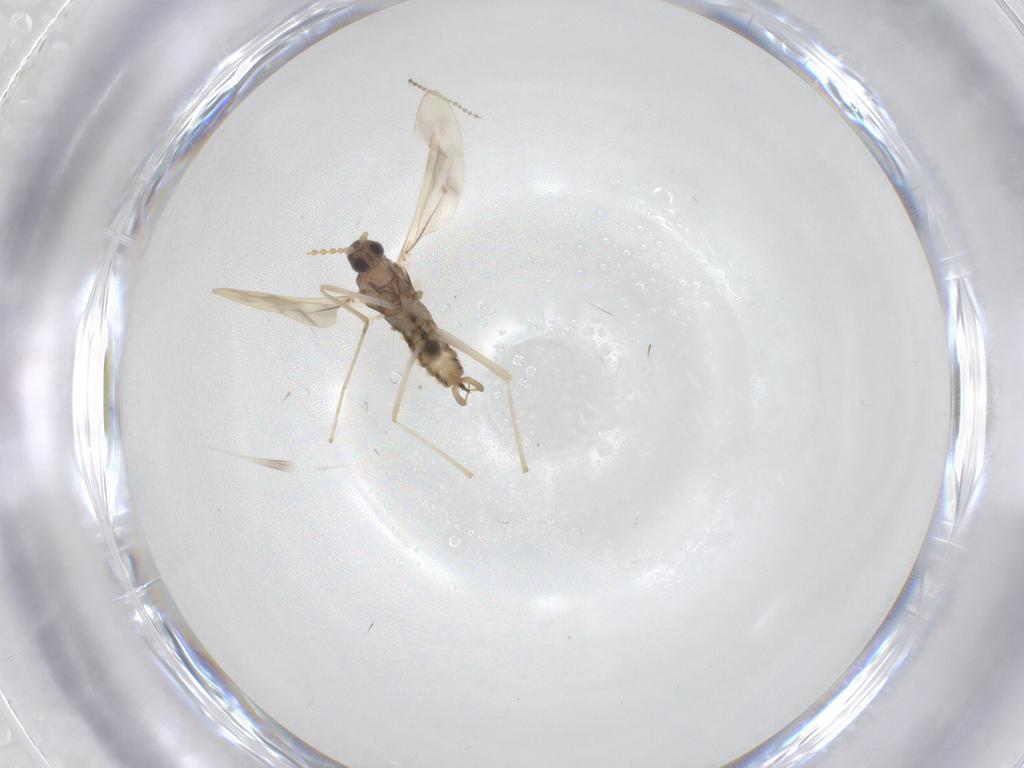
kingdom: Animalia
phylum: Arthropoda
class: Insecta
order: Diptera
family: Cecidomyiidae
